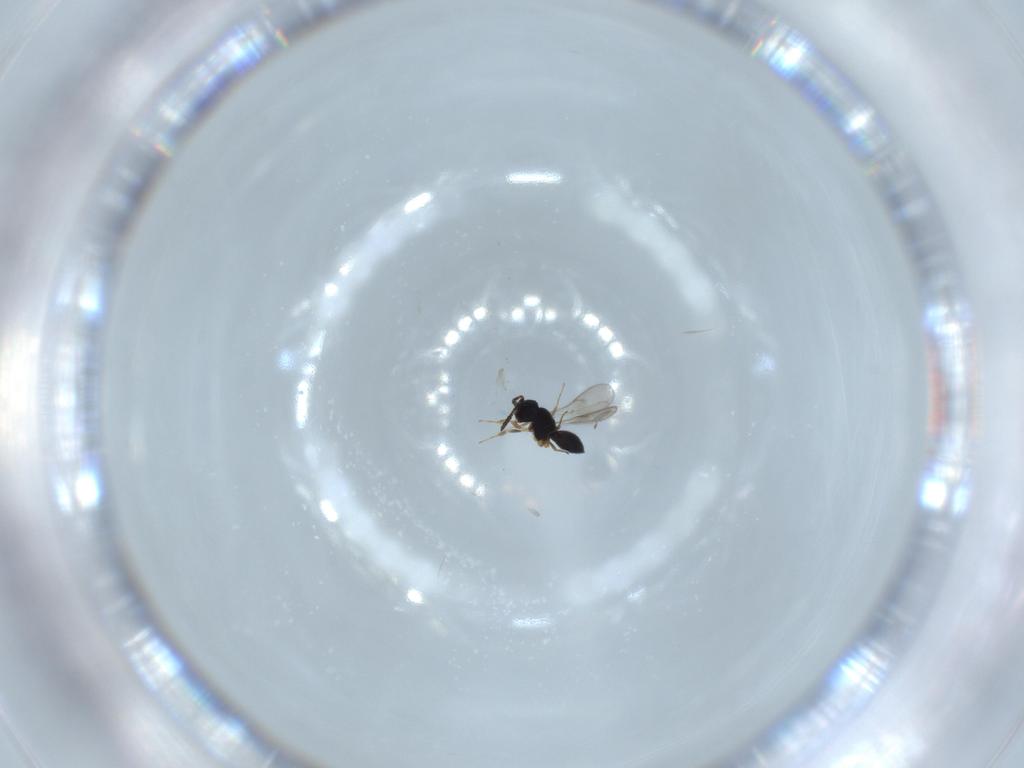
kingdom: Animalia
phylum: Arthropoda
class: Insecta
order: Hymenoptera
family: Scelionidae
